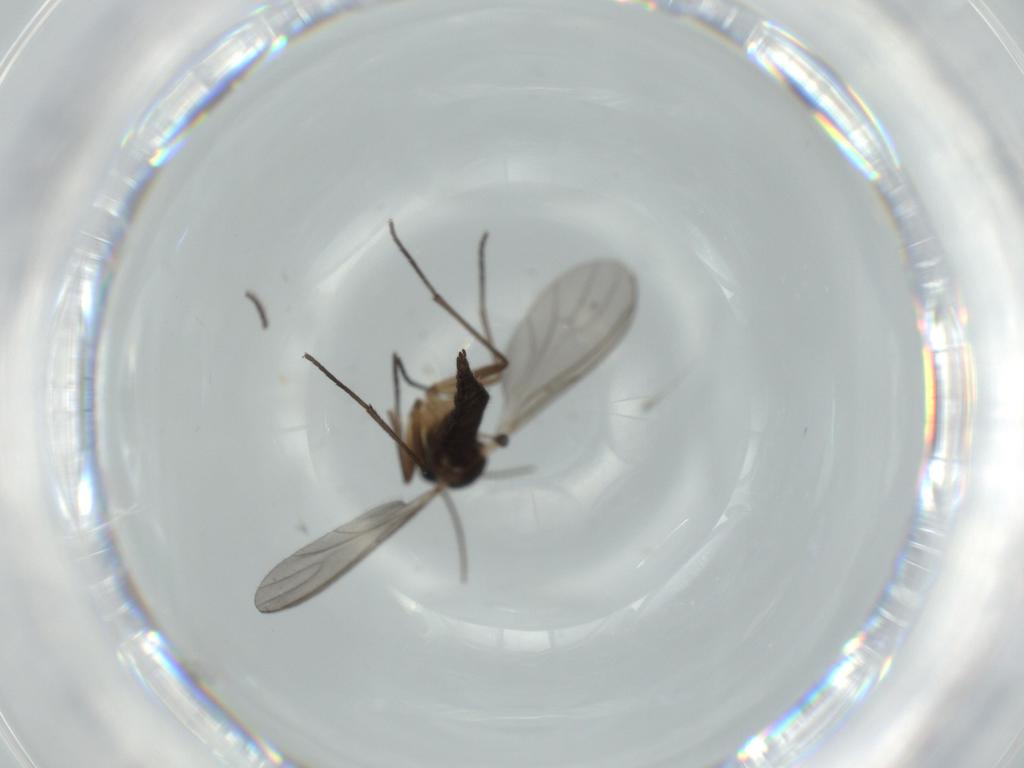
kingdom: Animalia
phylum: Arthropoda
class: Insecta
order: Diptera
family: Sciaridae
